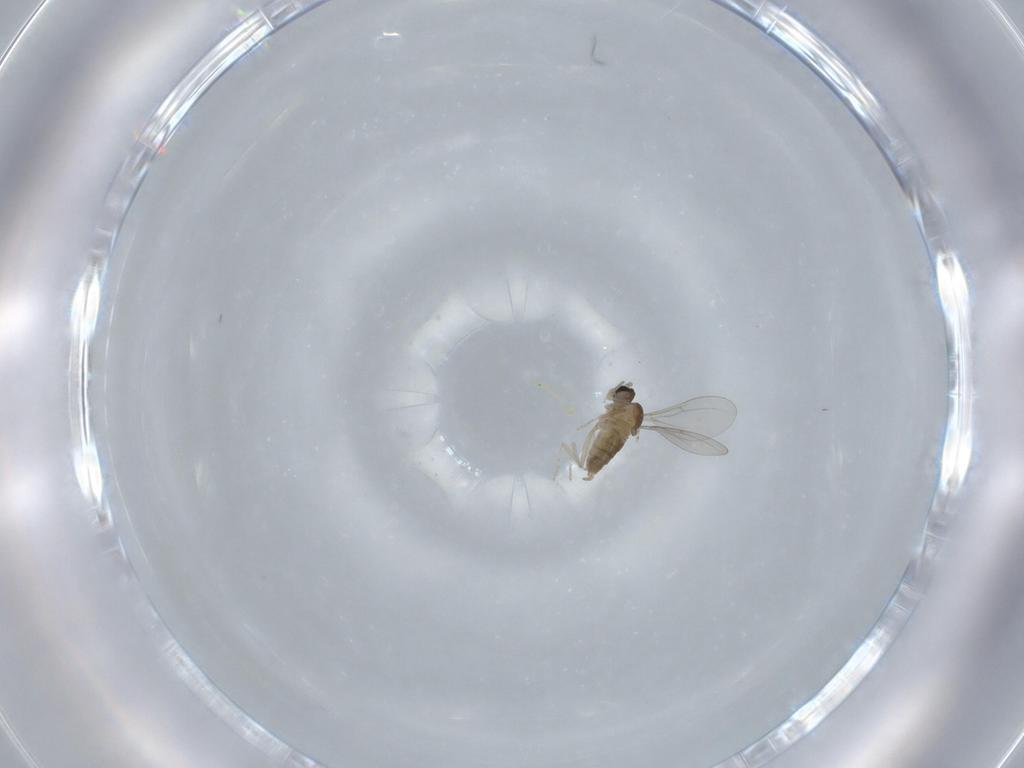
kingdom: Animalia
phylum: Arthropoda
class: Insecta
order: Diptera
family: Cecidomyiidae
